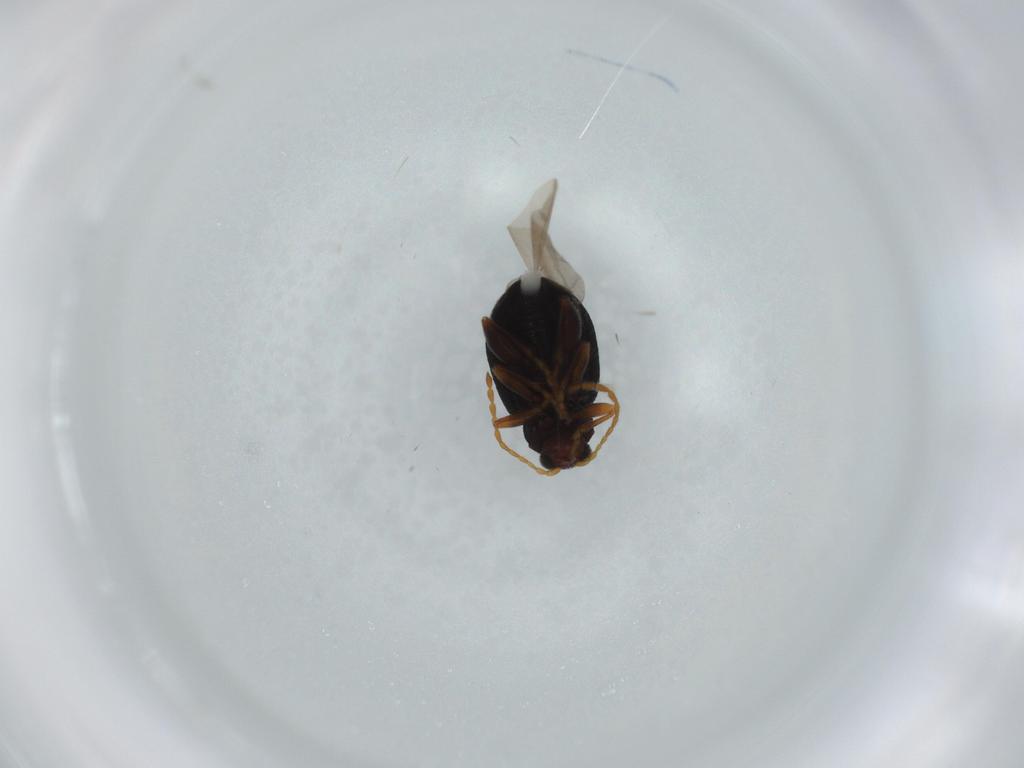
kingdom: Animalia
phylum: Arthropoda
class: Insecta
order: Coleoptera
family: Chrysomelidae
